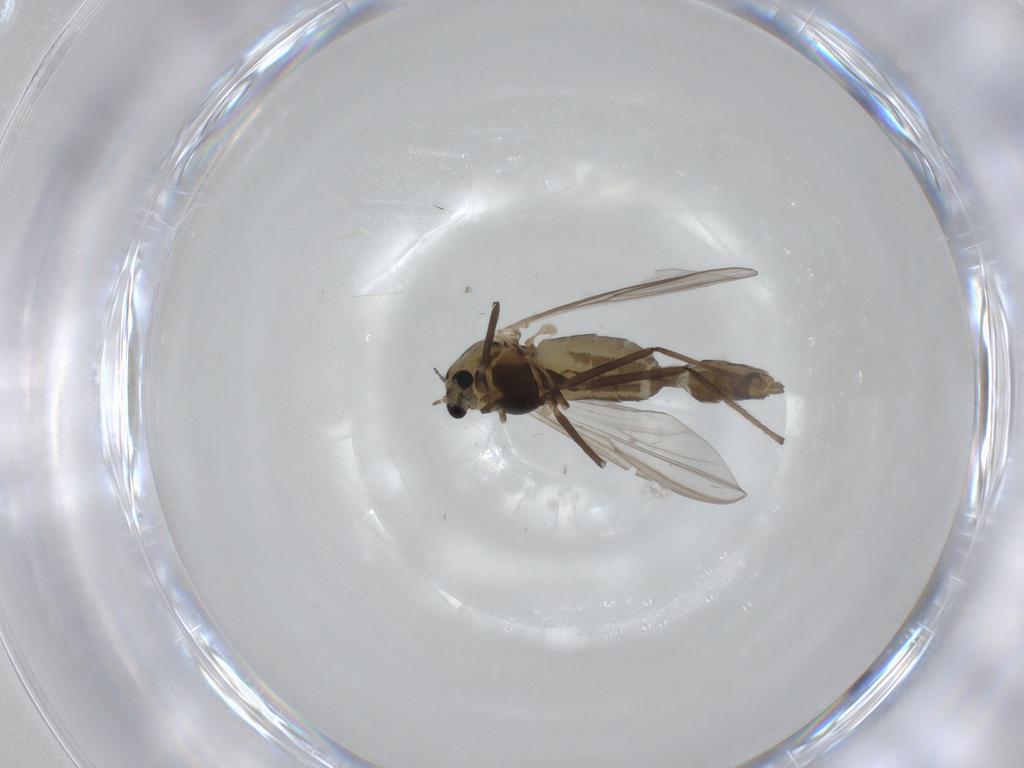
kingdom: Animalia
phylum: Arthropoda
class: Insecta
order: Diptera
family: Chironomidae
